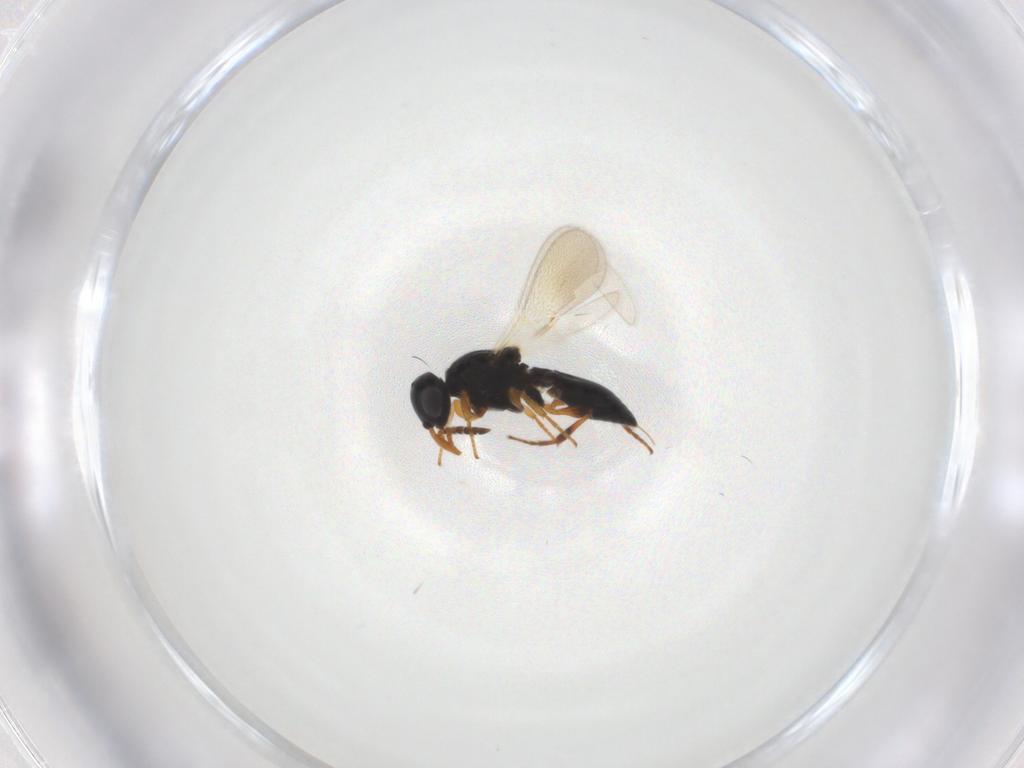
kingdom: Animalia
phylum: Arthropoda
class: Insecta
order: Hymenoptera
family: Platygastridae
